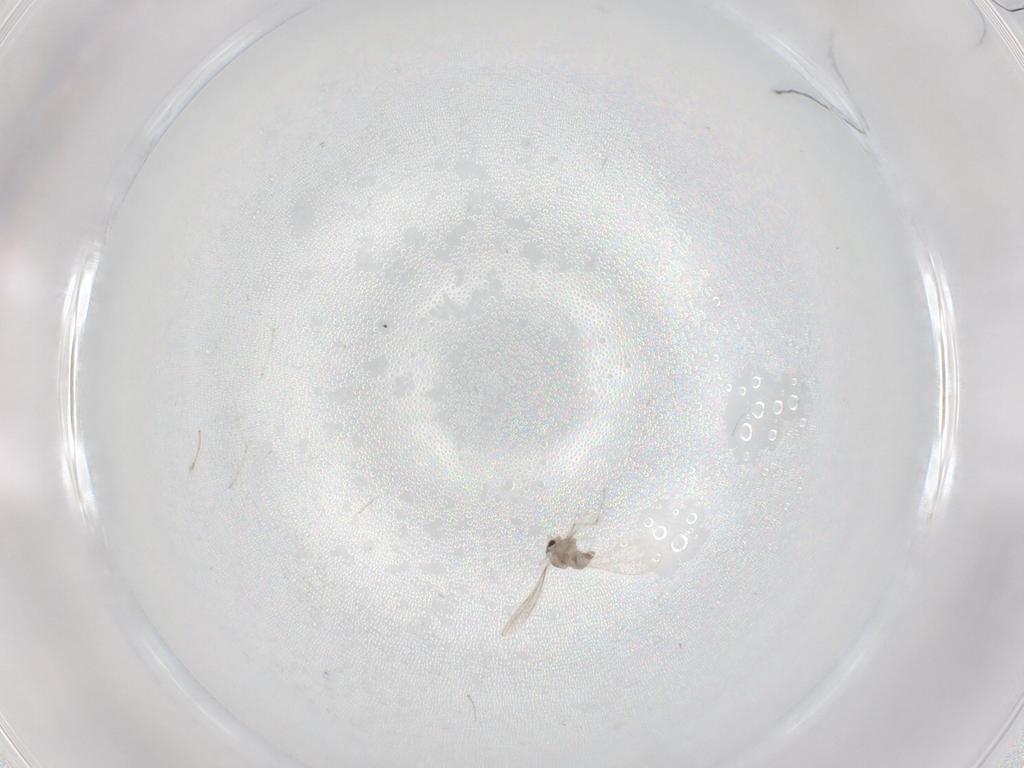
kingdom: Animalia
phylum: Arthropoda
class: Insecta
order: Diptera
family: Cecidomyiidae
